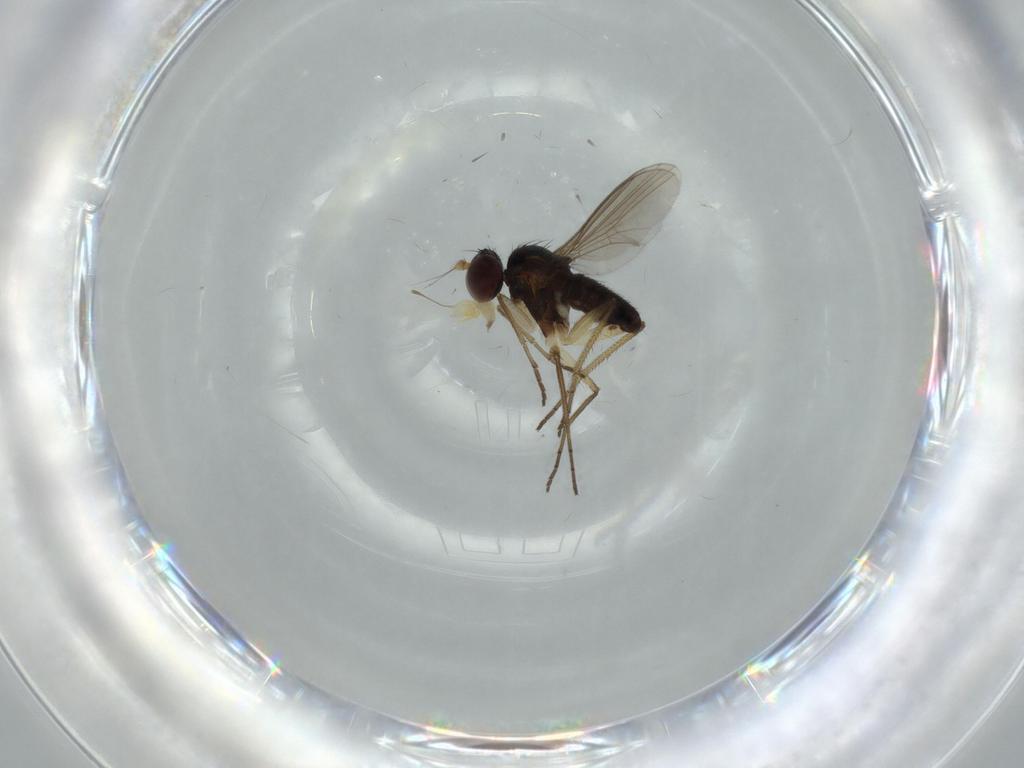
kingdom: Animalia
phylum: Arthropoda
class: Insecta
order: Diptera
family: Dolichopodidae
